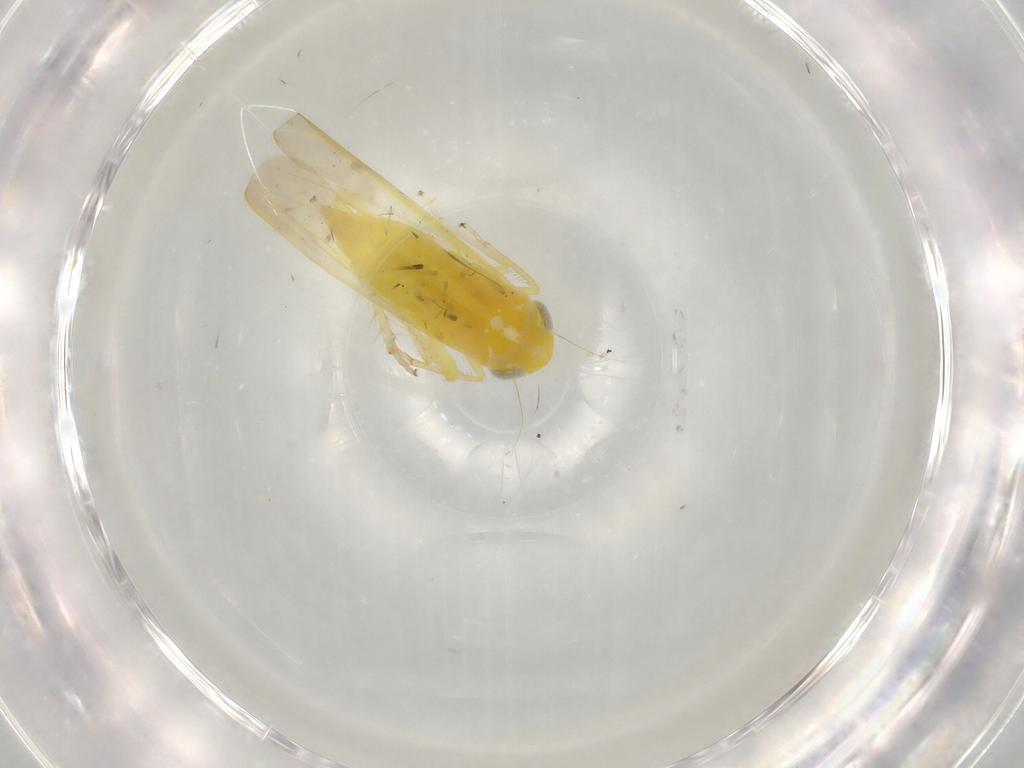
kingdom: Animalia
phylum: Arthropoda
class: Insecta
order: Hemiptera
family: Cicadellidae
